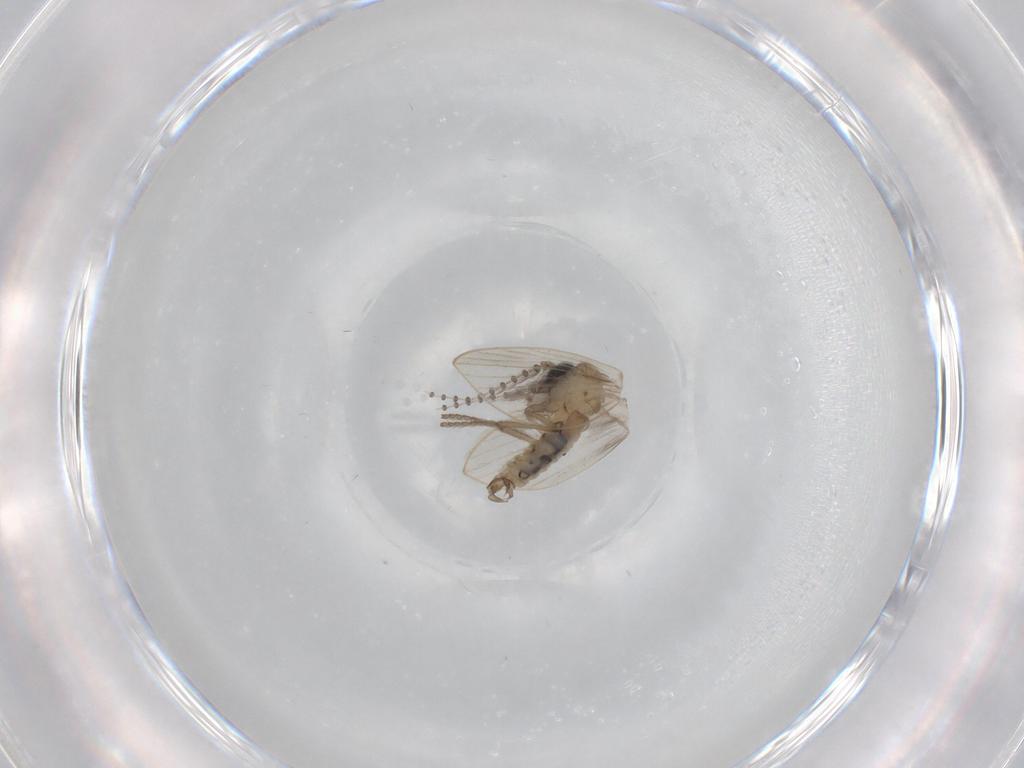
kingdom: Animalia
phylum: Arthropoda
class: Insecta
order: Diptera
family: Psychodidae
